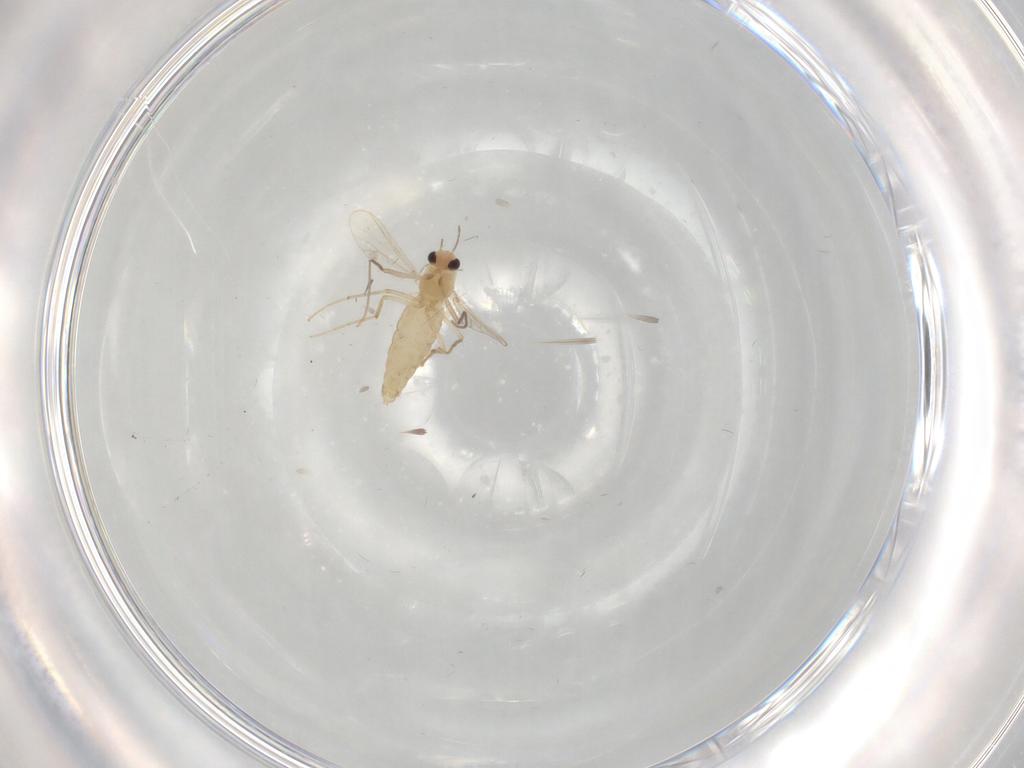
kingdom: Animalia
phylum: Arthropoda
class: Insecta
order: Diptera
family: Chironomidae
